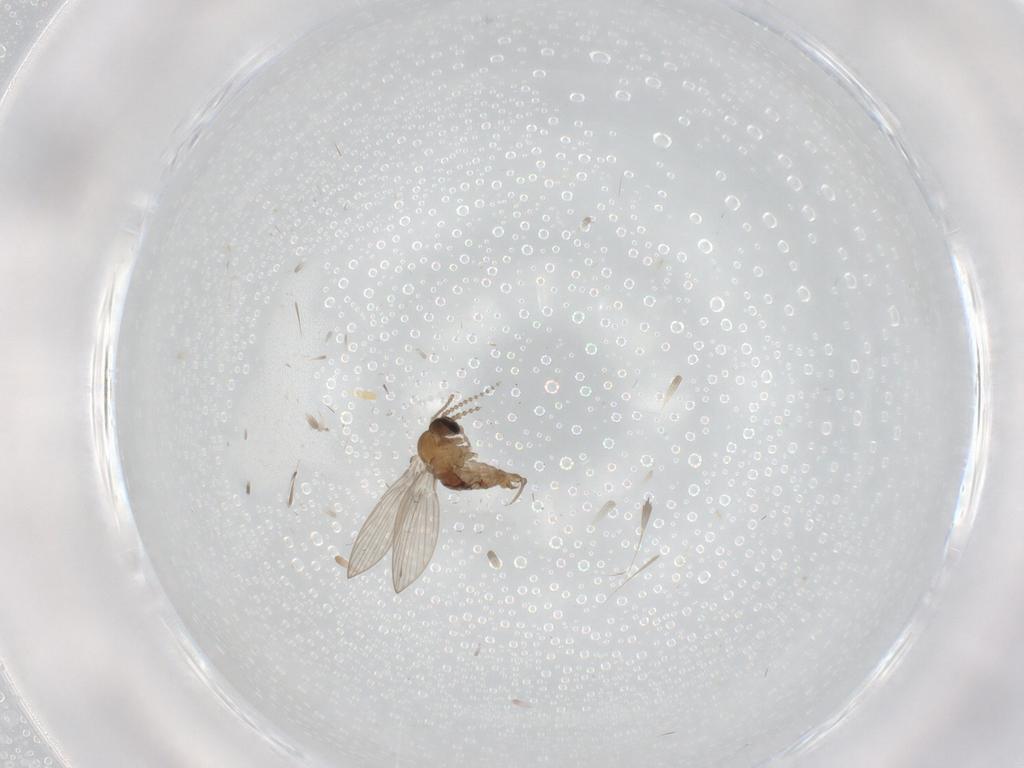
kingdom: Animalia
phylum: Arthropoda
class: Insecta
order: Diptera
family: Psychodidae
